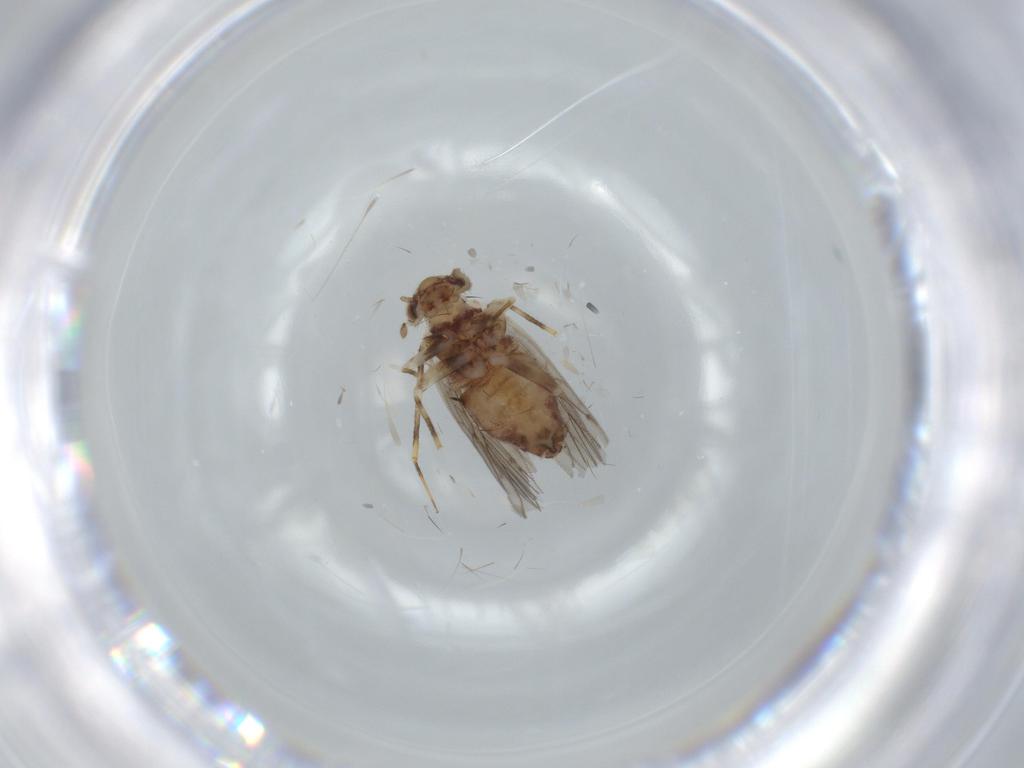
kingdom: Animalia
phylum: Arthropoda
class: Insecta
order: Psocodea
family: Lepidopsocidae
